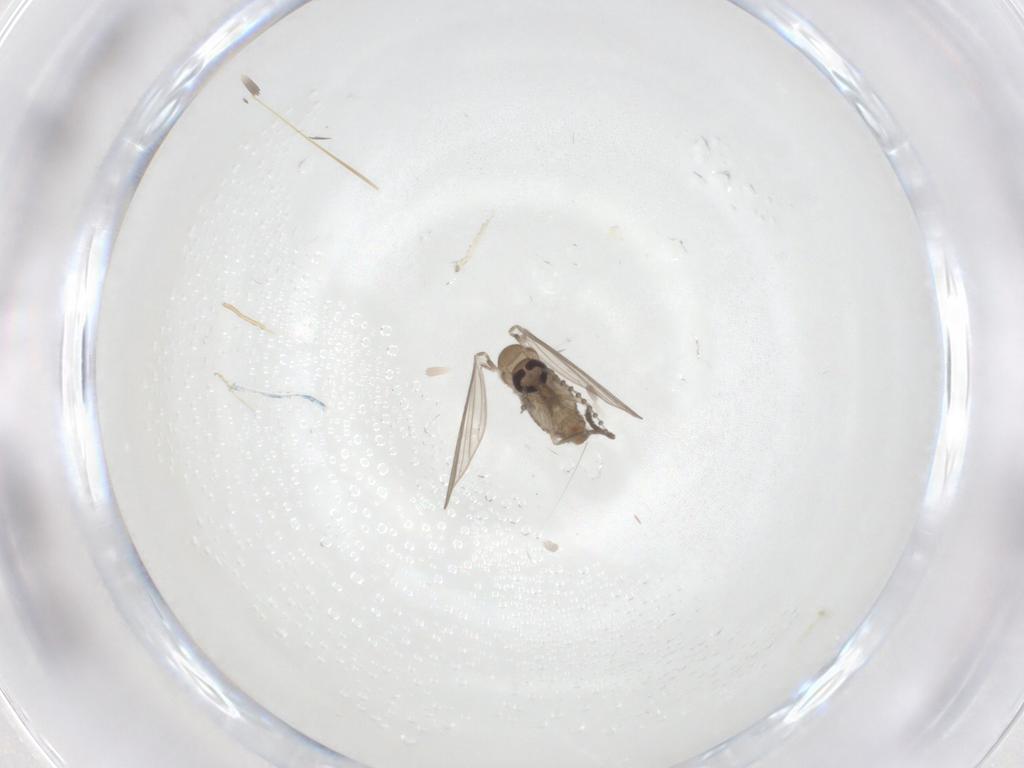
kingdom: Animalia
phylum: Arthropoda
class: Insecta
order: Diptera
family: Psychodidae
